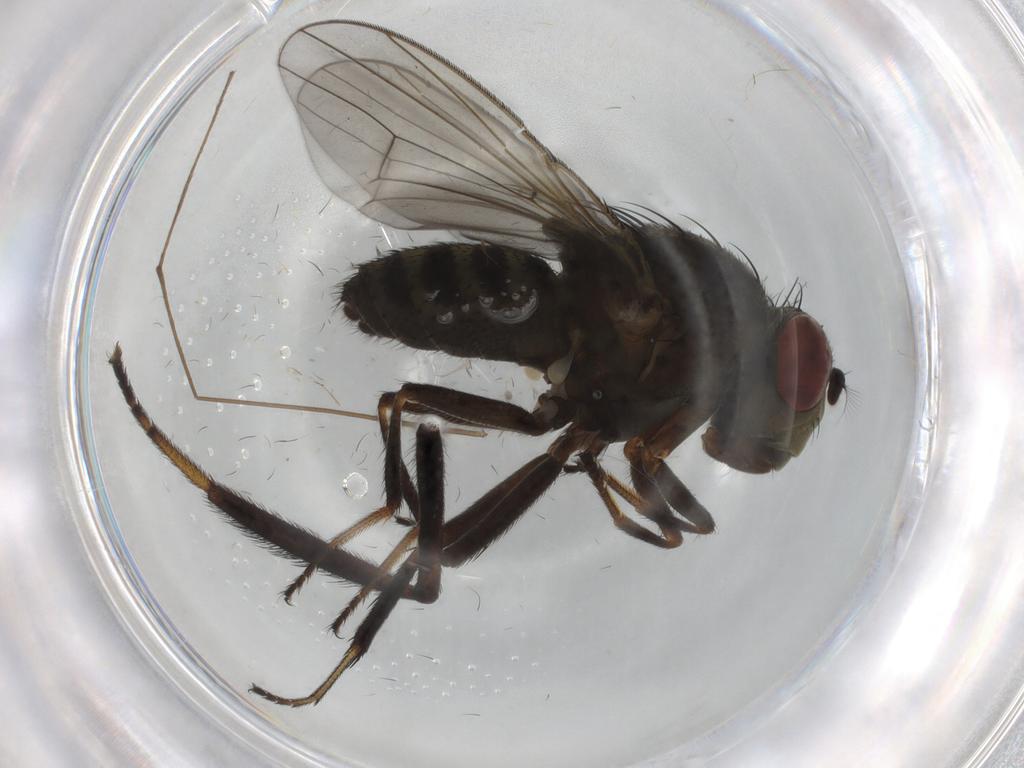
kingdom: Animalia
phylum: Arthropoda
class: Insecta
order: Diptera
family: Ephydridae
